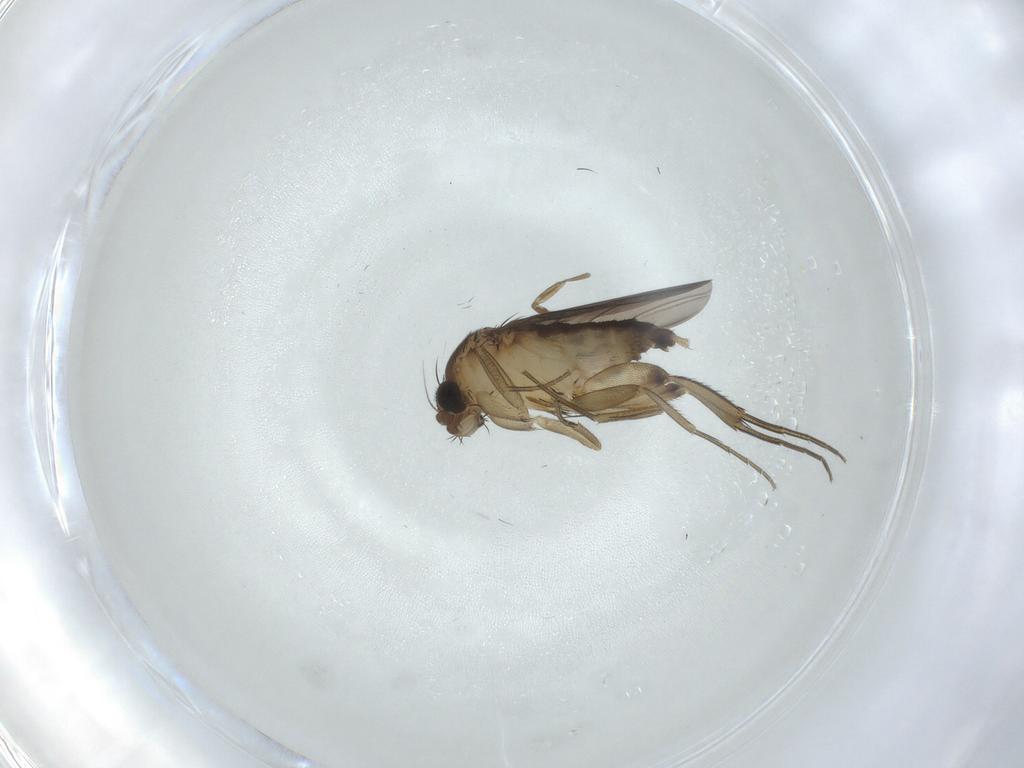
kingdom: Animalia
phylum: Arthropoda
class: Insecta
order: Diptera
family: Phoridae
